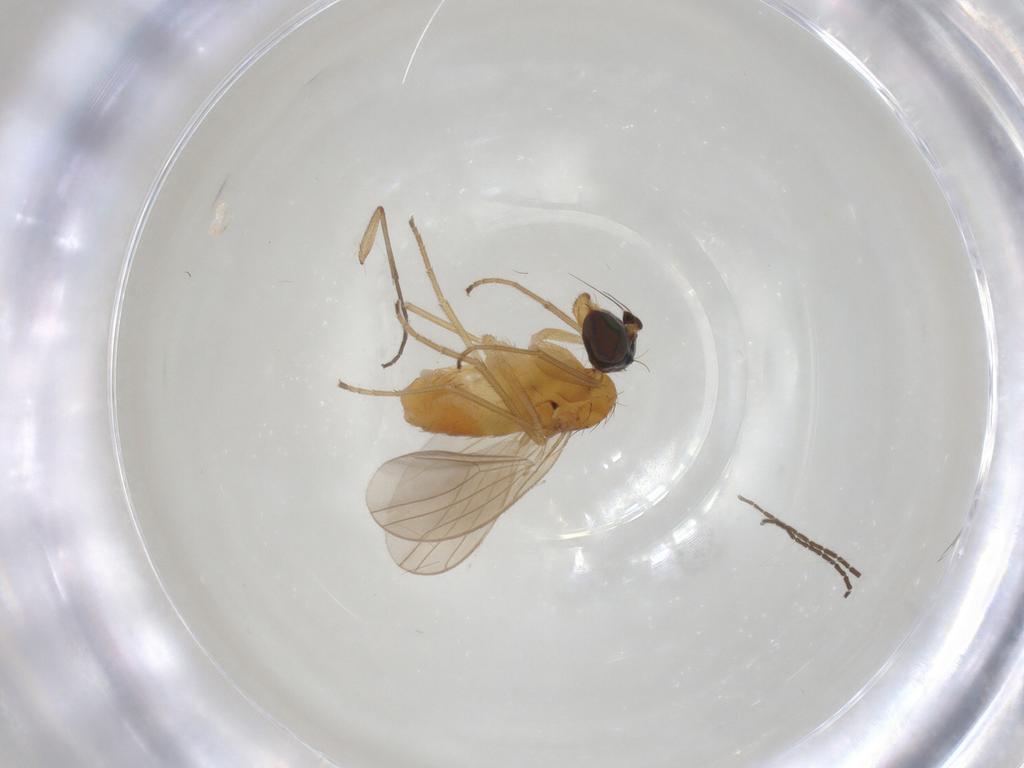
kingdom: Animalia
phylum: Arthropoda
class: Insecta
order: Diptera
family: Dolichopodidae
